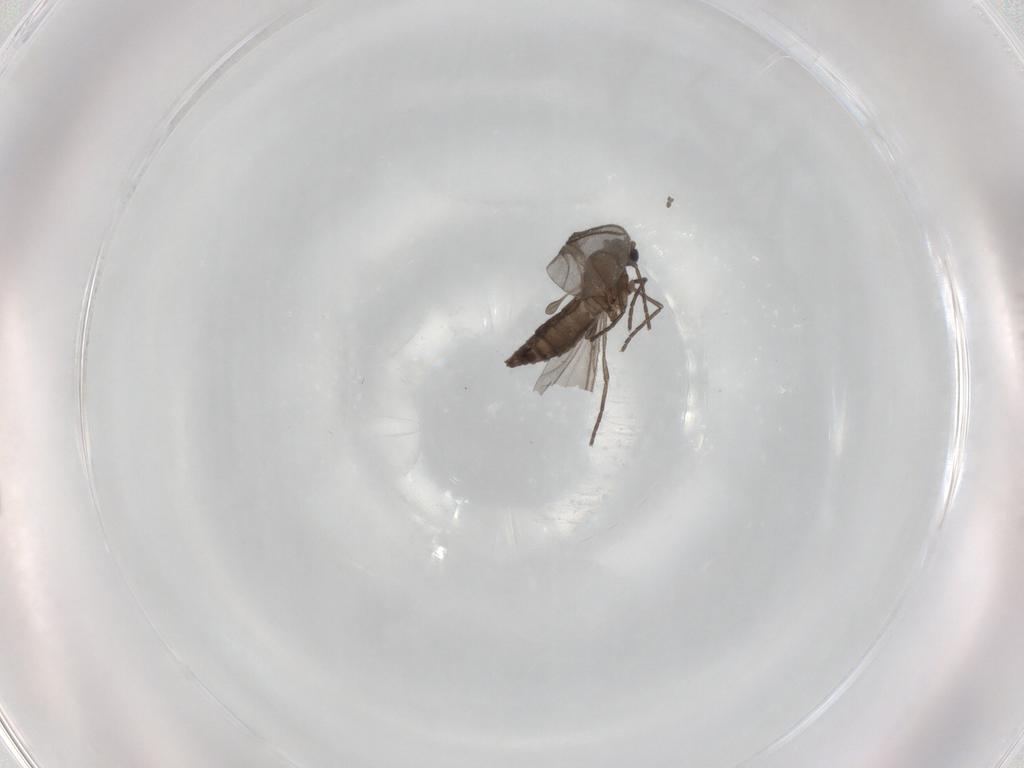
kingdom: Animalia
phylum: Arthropoda
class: Insecta
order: Diptera
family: Sciaridae
